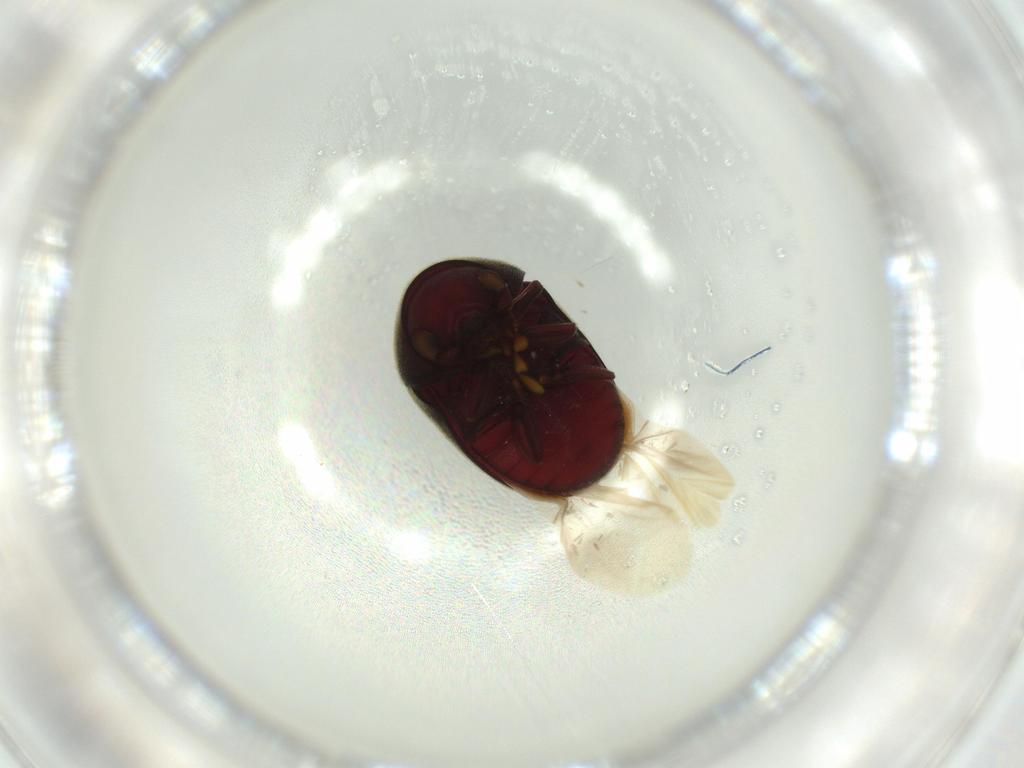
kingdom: Animalia
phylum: Arthropoda
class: Insecta
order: Coleoptera
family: Ptinidae
